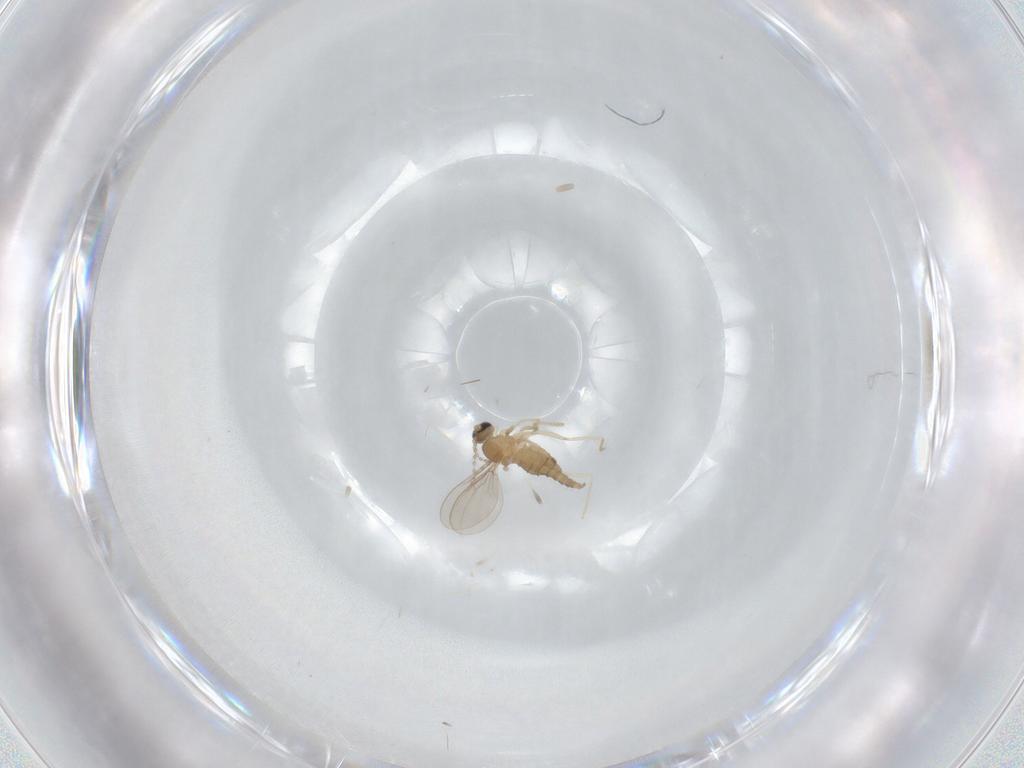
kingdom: Animalia
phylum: Arthropoda
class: Insecta
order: Diptera
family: Cecidomyiidae
